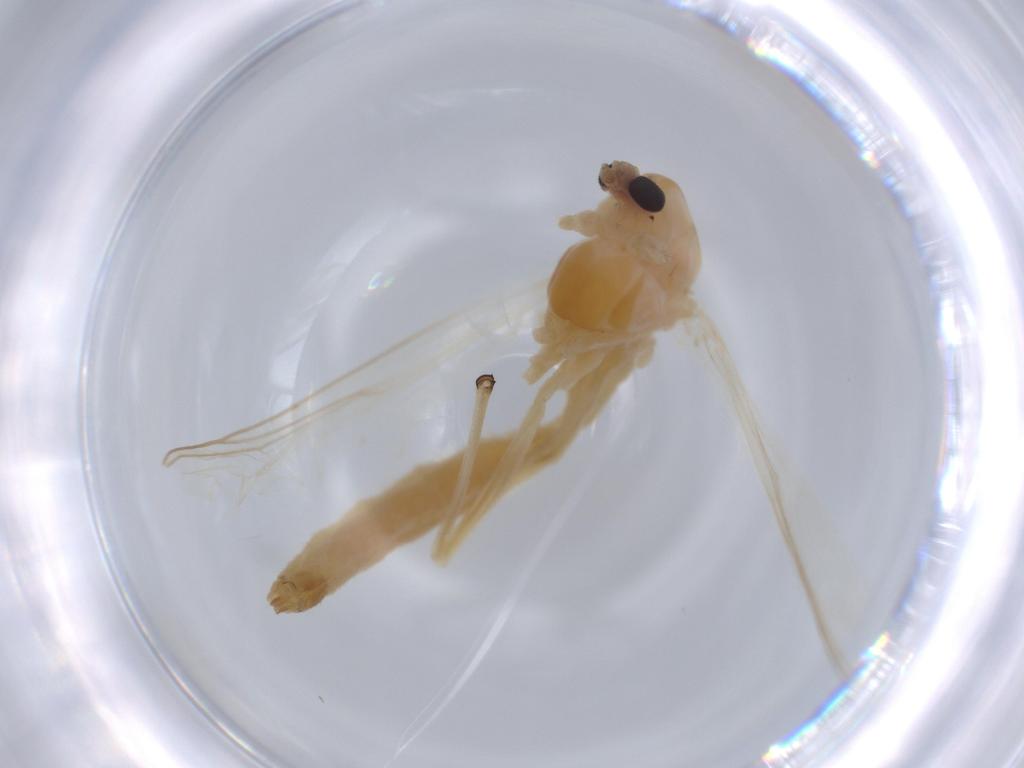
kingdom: Animalia
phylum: Arthropoda
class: Insecta
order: Diptera
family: Chironomidae
